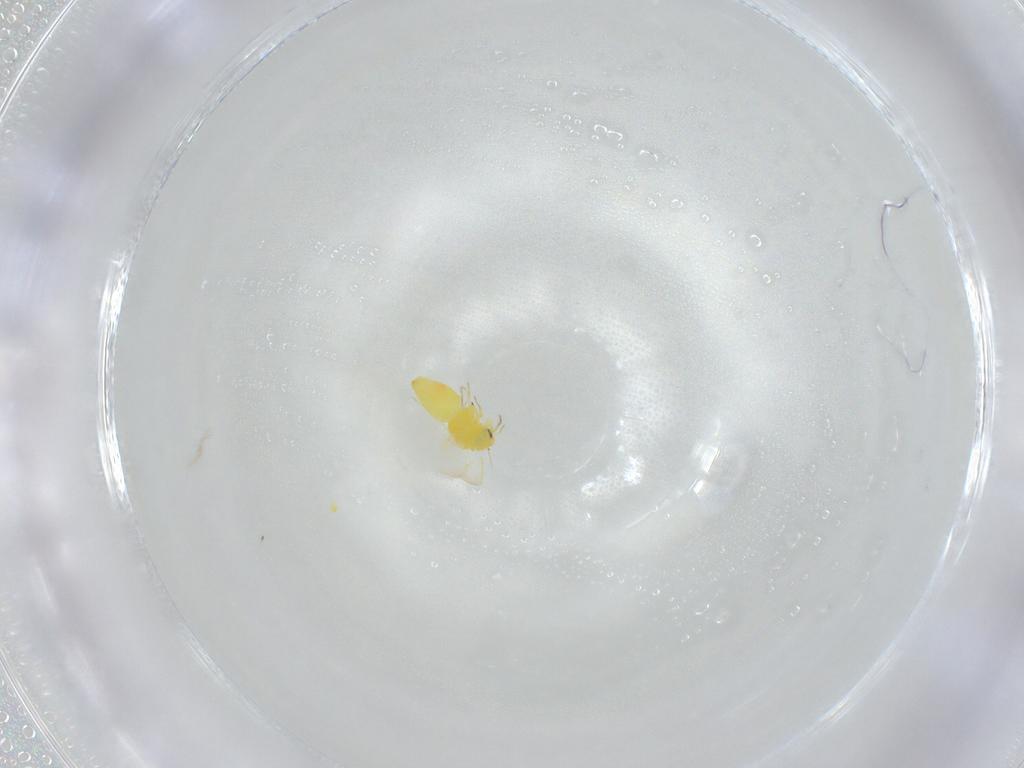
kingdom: Animalia
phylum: Arthropoda
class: Insecta
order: Hemiptera
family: Aleyrodidae
